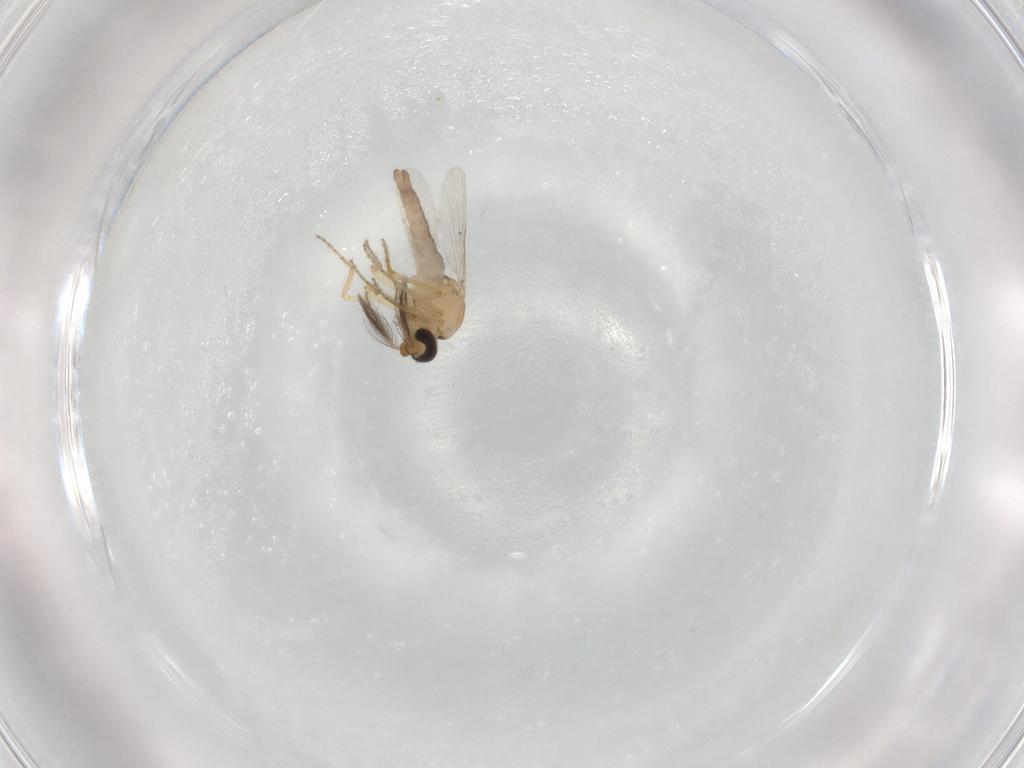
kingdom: Animalia
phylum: Arthropoda
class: Insecta
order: Diptera
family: Ceratopogonidae
